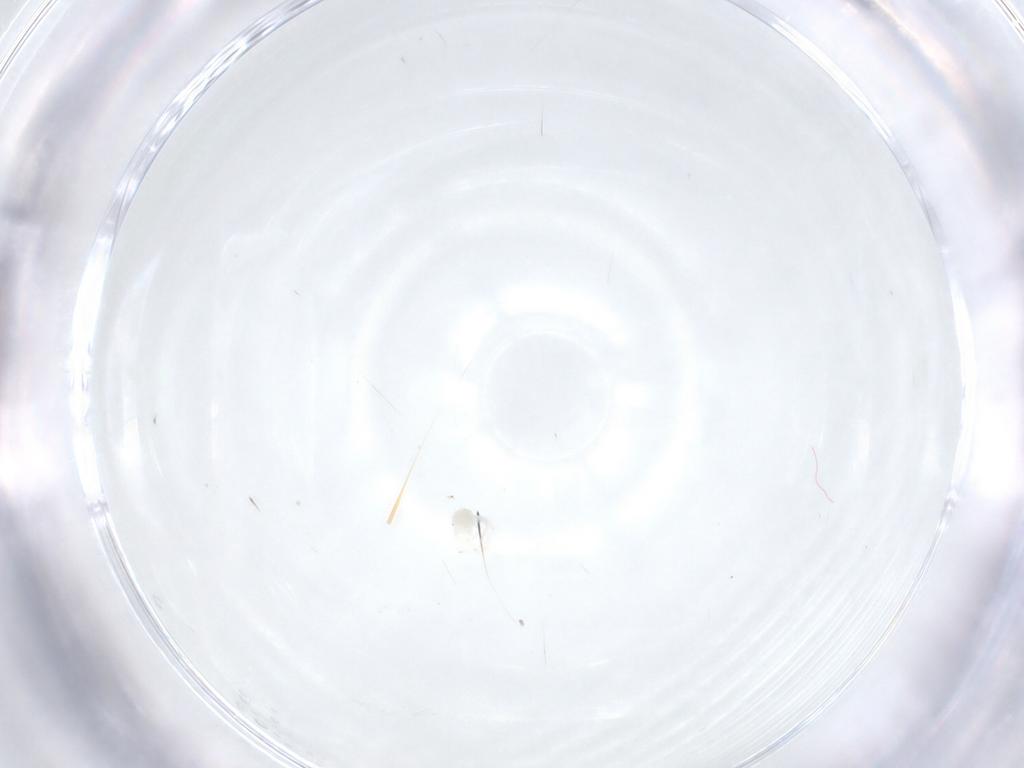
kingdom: Animalia
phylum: Arthropoda
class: Arachnida
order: Trombidiformes
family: Anystidae
